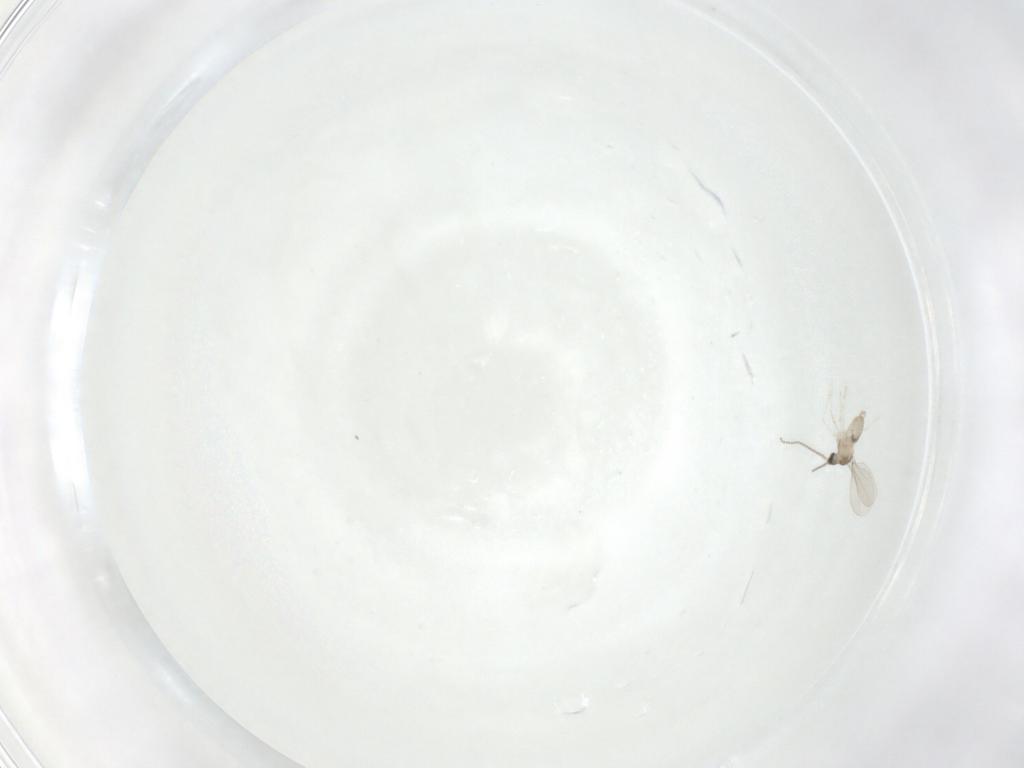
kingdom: Animalia
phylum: Arthropoda
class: Insecta
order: Diptera
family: Cecidomyiidae
